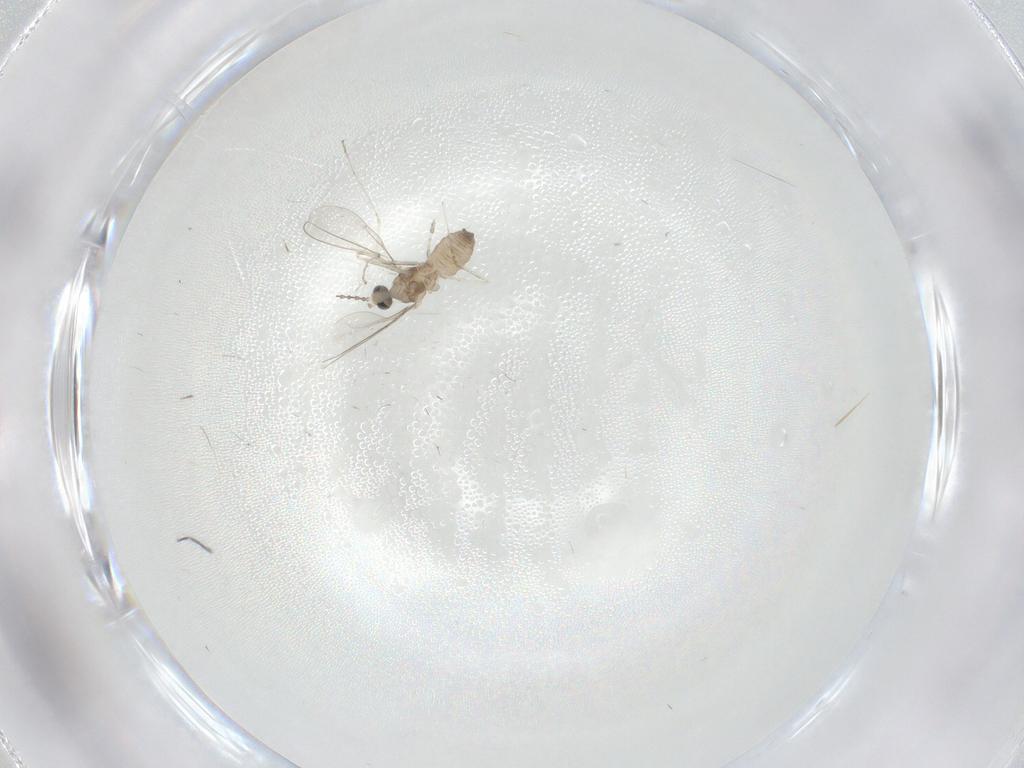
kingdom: Animalia
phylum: Arthropoda
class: Insecta
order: Diptera
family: Cecidomyiidae
